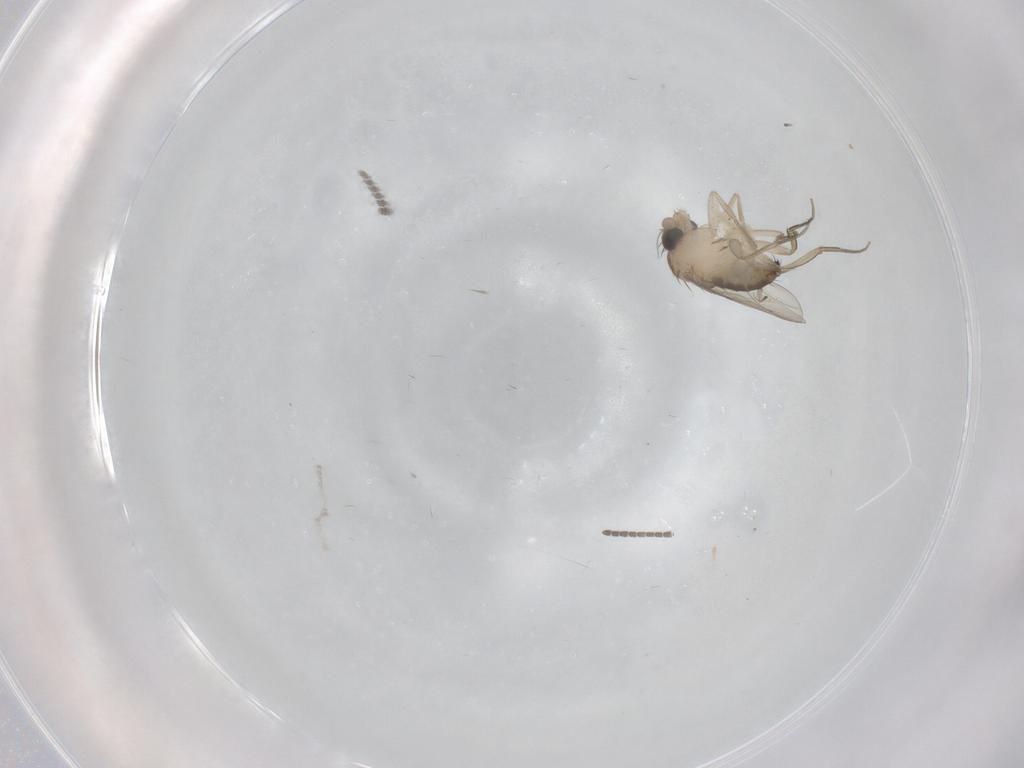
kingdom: Animalia
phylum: Arthropoda
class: Insecta
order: Diptera
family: Phoridae
